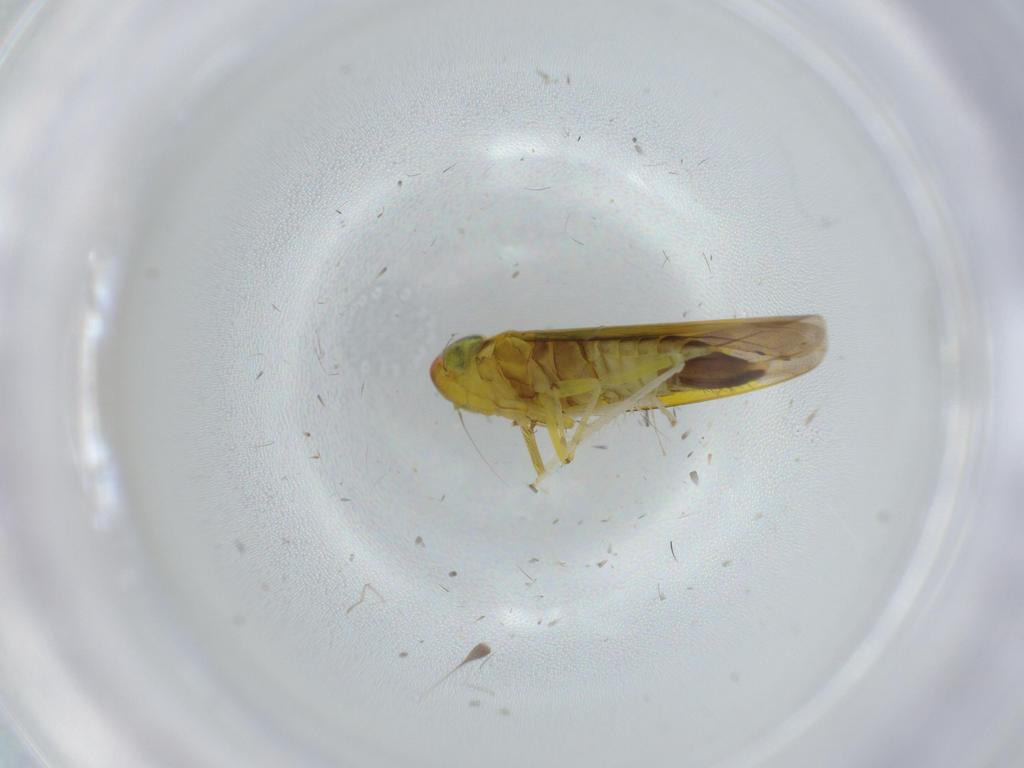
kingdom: Animalia
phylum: Arthropoda
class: Insecta
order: Hemiptera
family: Cicadellidae
